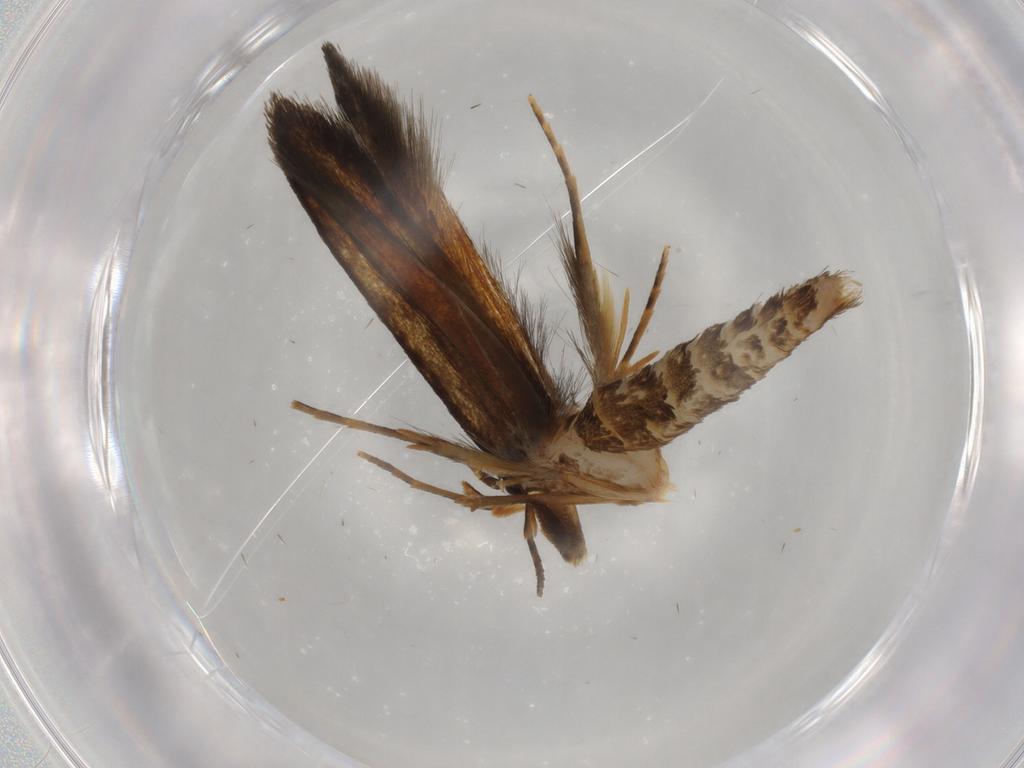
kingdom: Animalia
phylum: Arthropoda
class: Insecta
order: Lepidoptera
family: Tineidae
